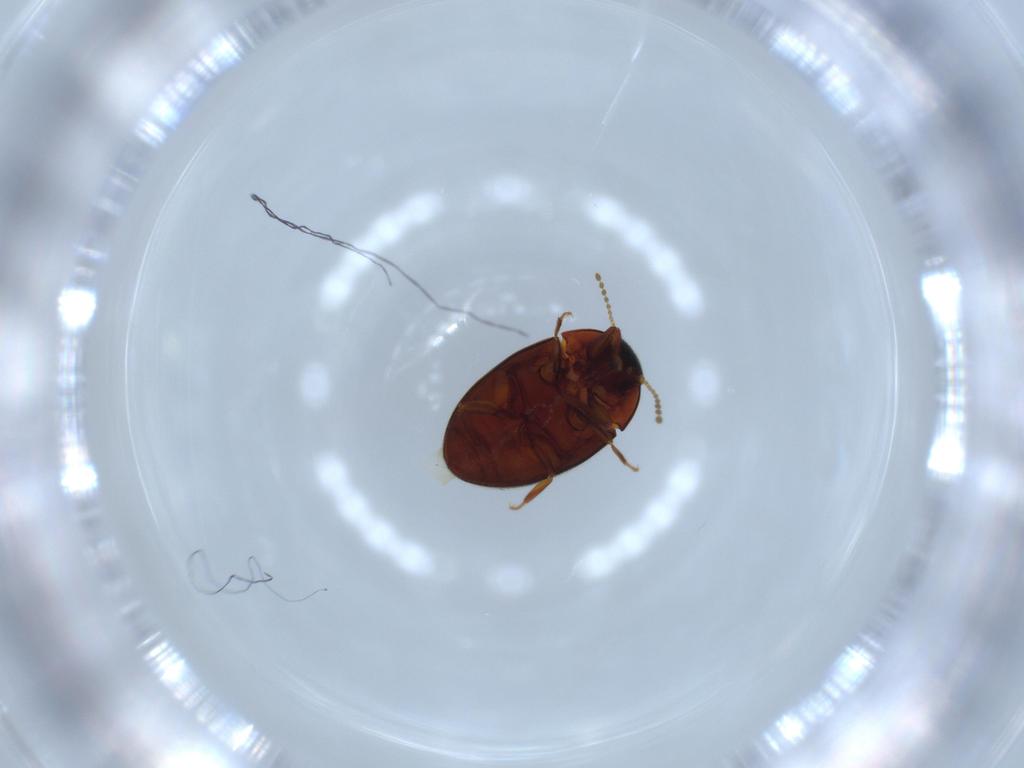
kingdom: Animalia
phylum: Arthropoda
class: Insecta
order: Coleoptera
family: Limnichidae
